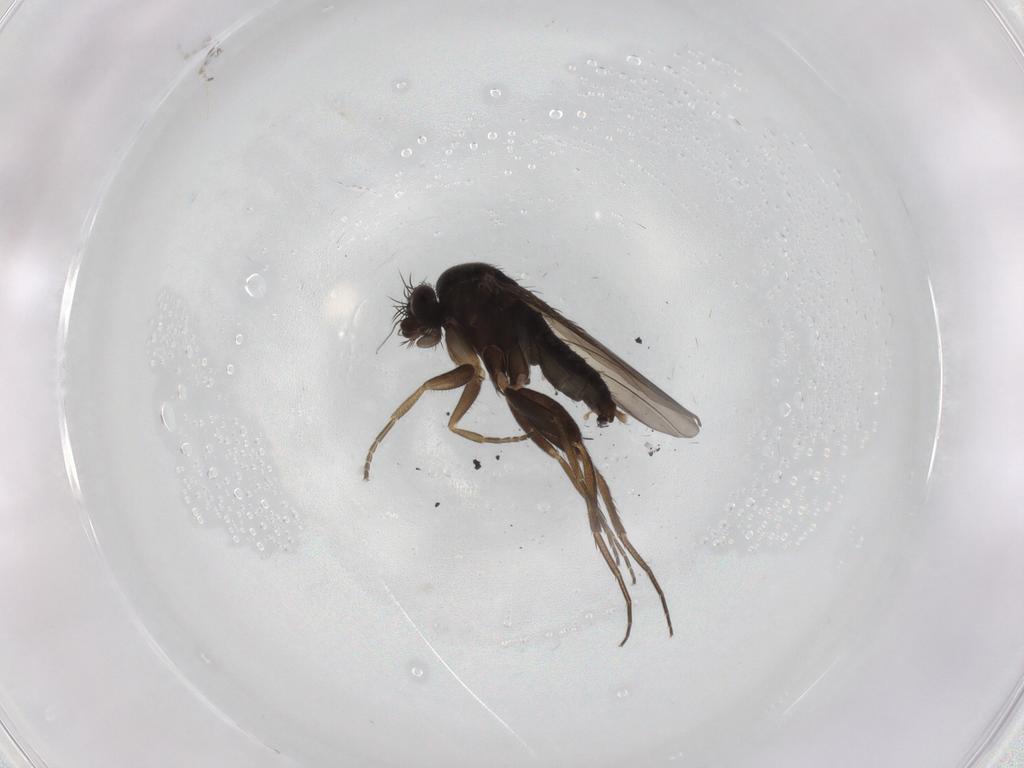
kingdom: Animalia
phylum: Arthropoda
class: Insecta
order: Diptera
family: Phoridae
